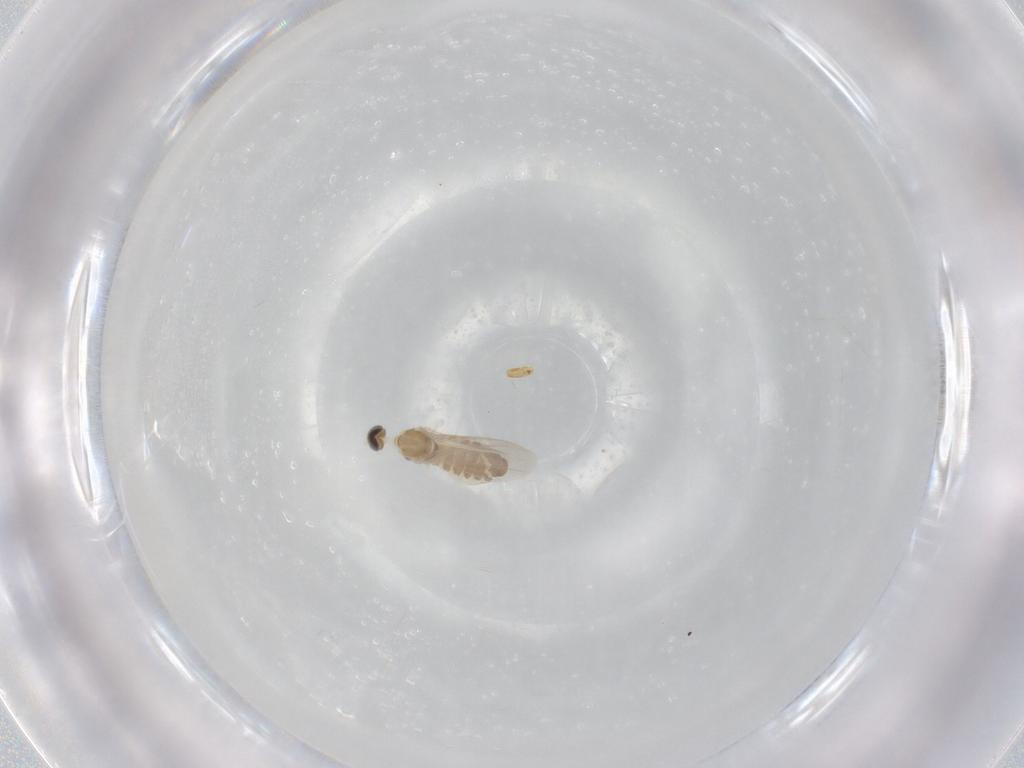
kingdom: Animalia
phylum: Arthropoda
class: Insecta
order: Diptera
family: Cecidomyiidae
